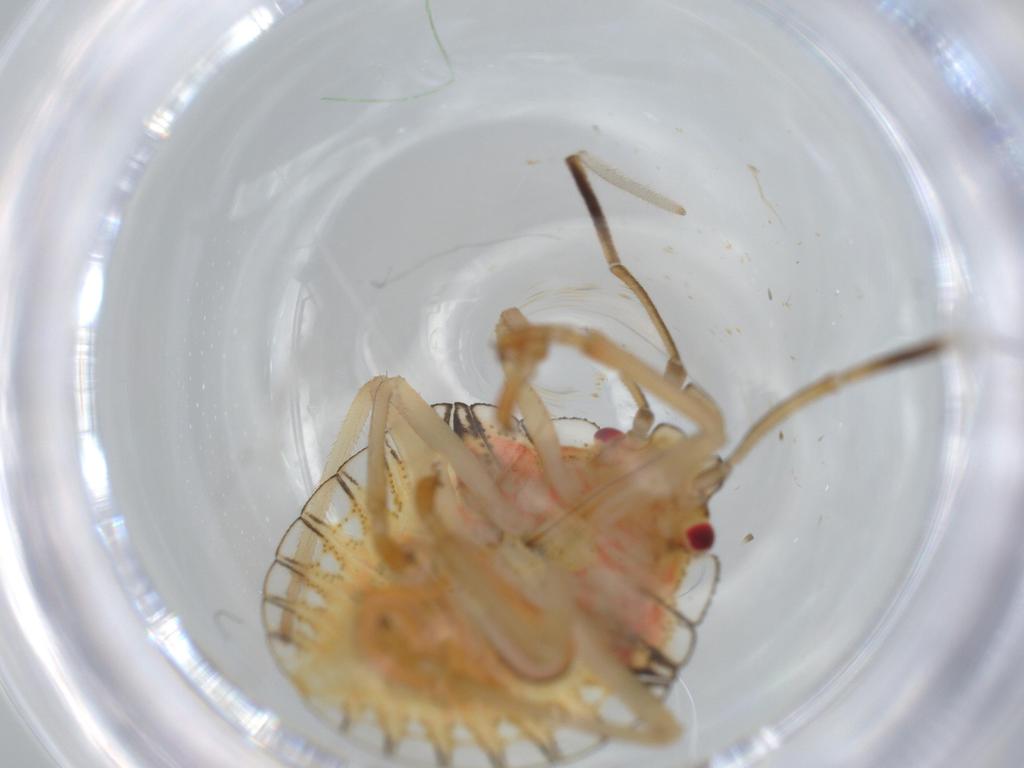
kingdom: Animalia
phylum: Arthropoda
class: Insecta
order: Hemiptera
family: Pentatomidae
